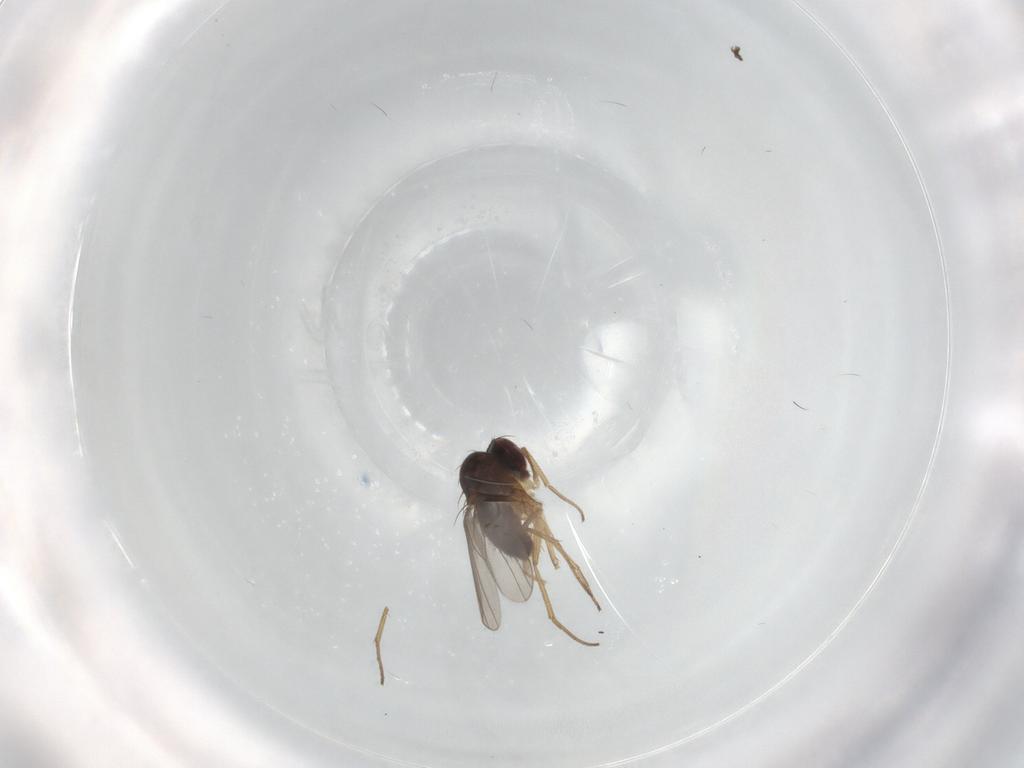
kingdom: Animalia
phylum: Arthropoda
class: Insecta
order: Diptera
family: Dolichopodidae
